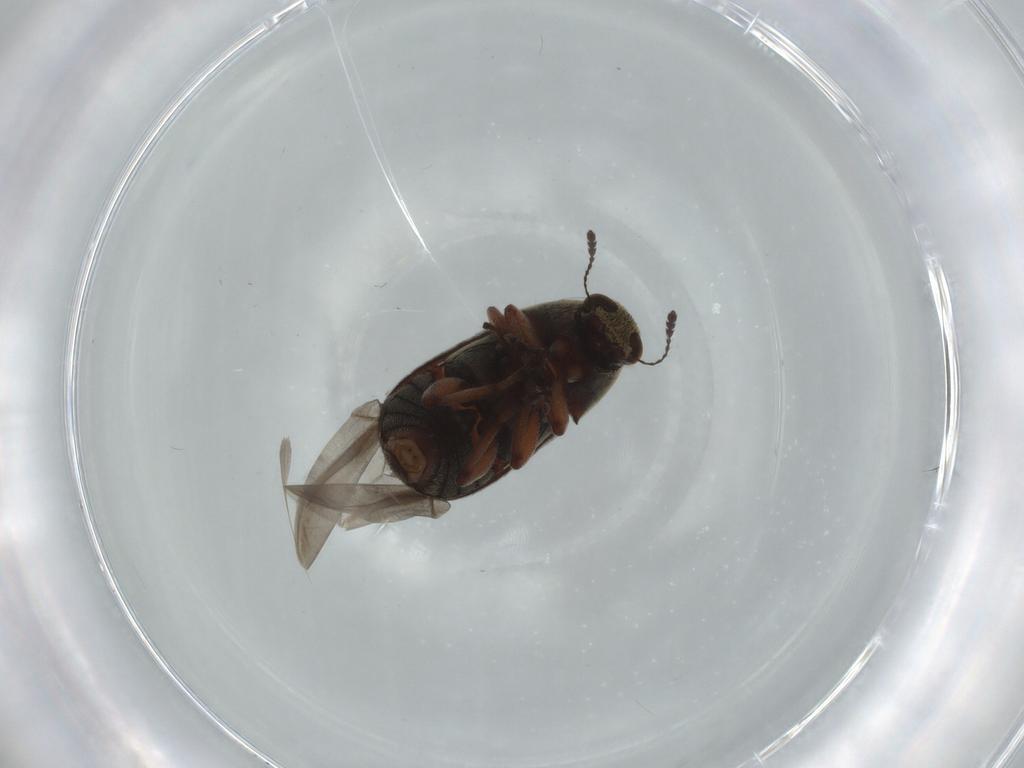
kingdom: Animalia
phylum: Arthropoda
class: Insecta
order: Coleoptera
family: Anthribidae
